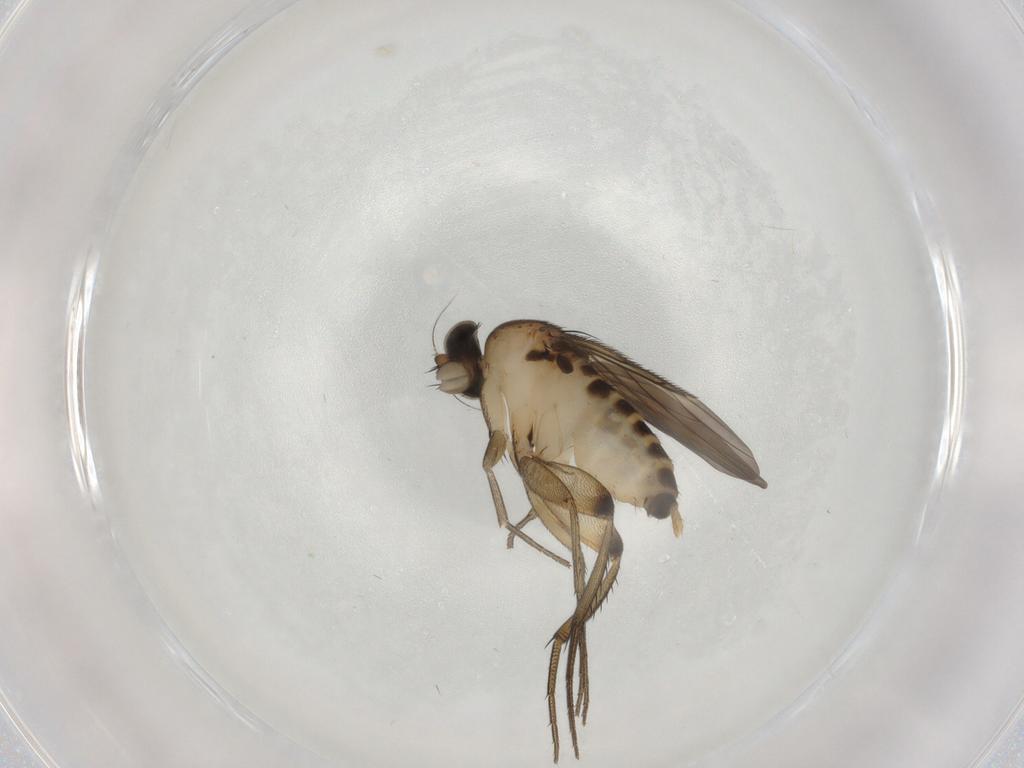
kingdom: Animalia
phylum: Arthropoda
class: Insecta
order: Diptera
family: Phoridae
